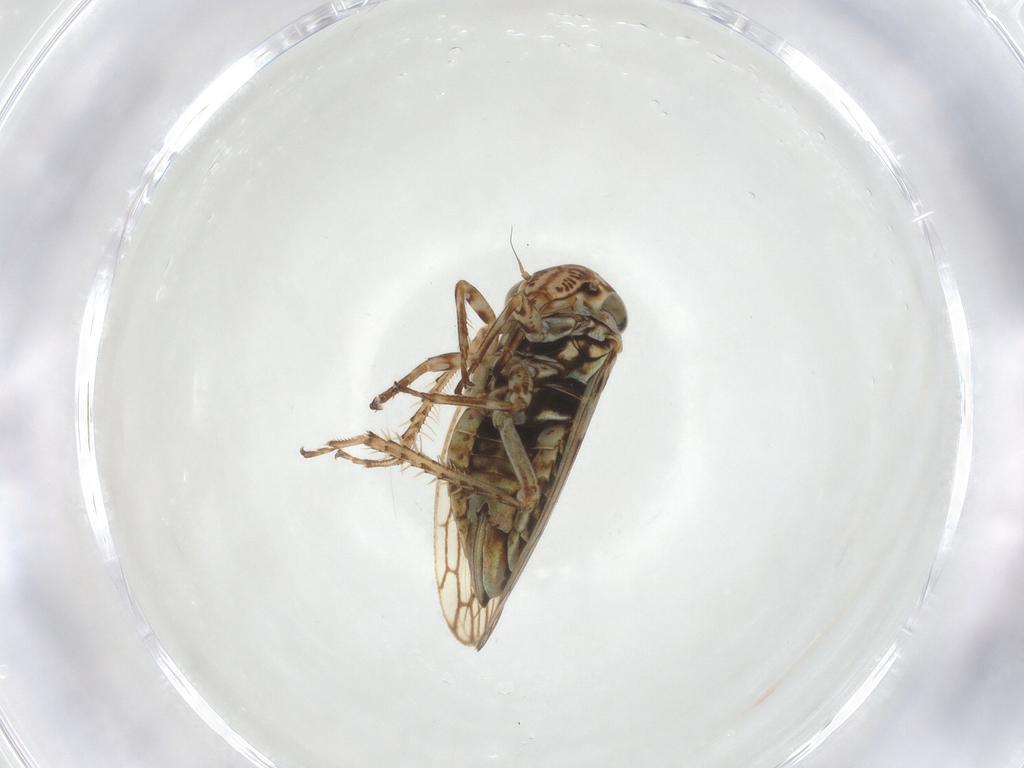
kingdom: Animalia
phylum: Arthropoda
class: Insecta
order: Hemiptera
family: Cicadellidae
